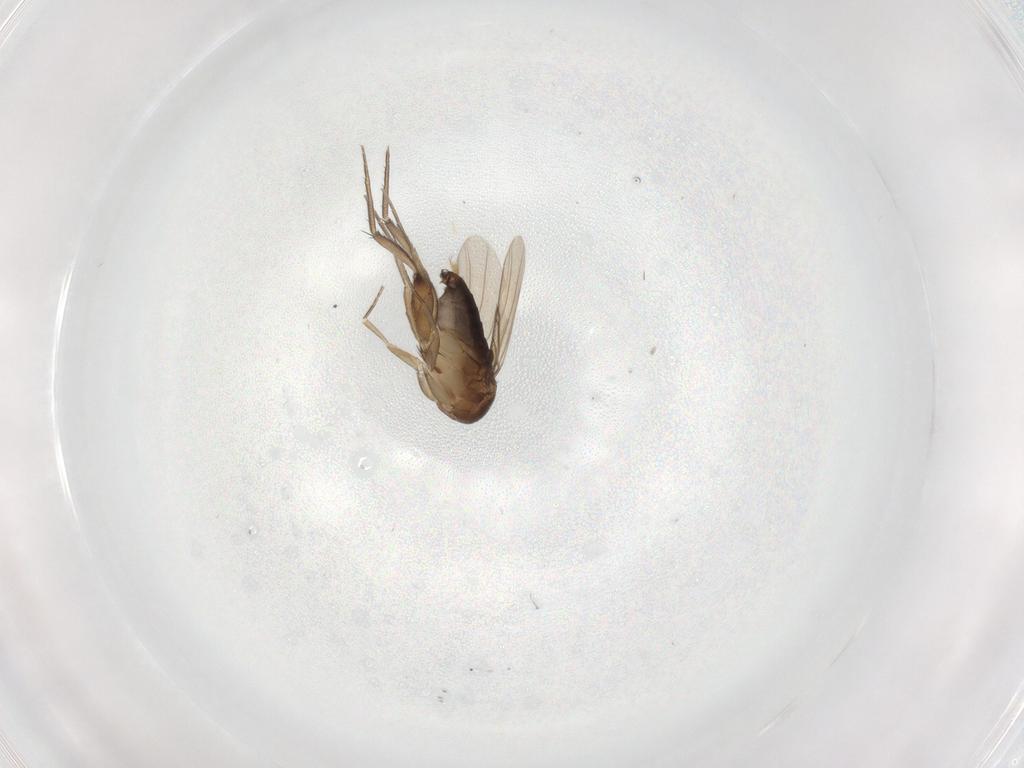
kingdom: Animalia
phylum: Arthropoda
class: Insecta
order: Diptera
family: Phoridae
